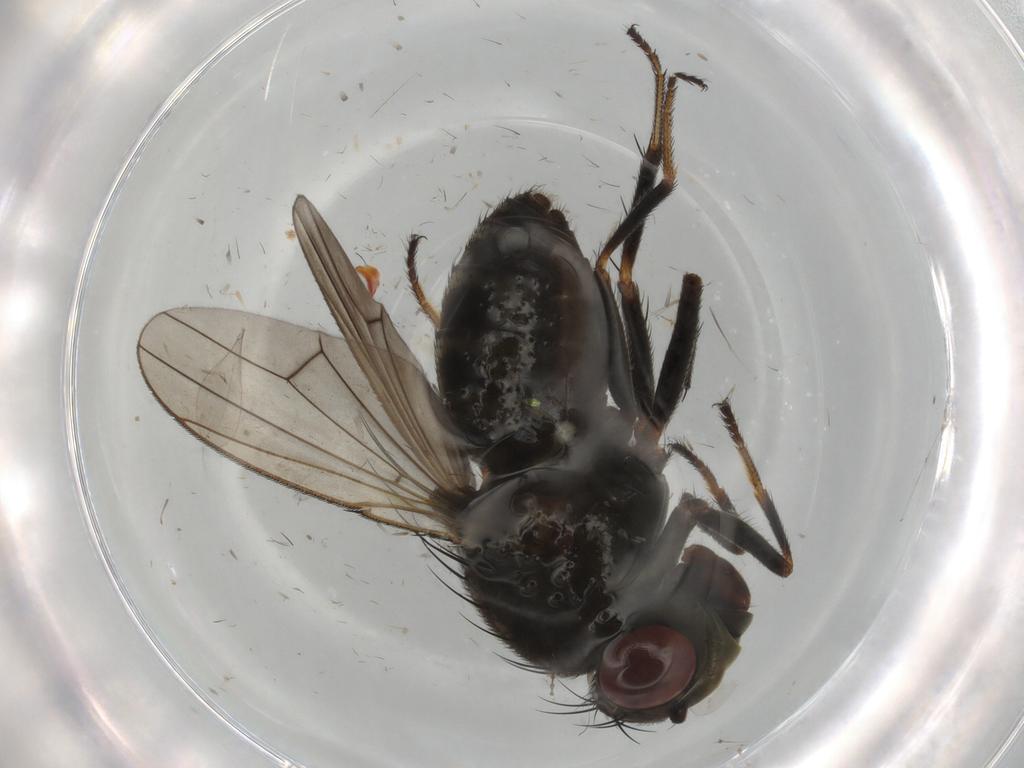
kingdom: Animalia
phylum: Arthropoda
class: Insecta
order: Diptera
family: Ephydridae
